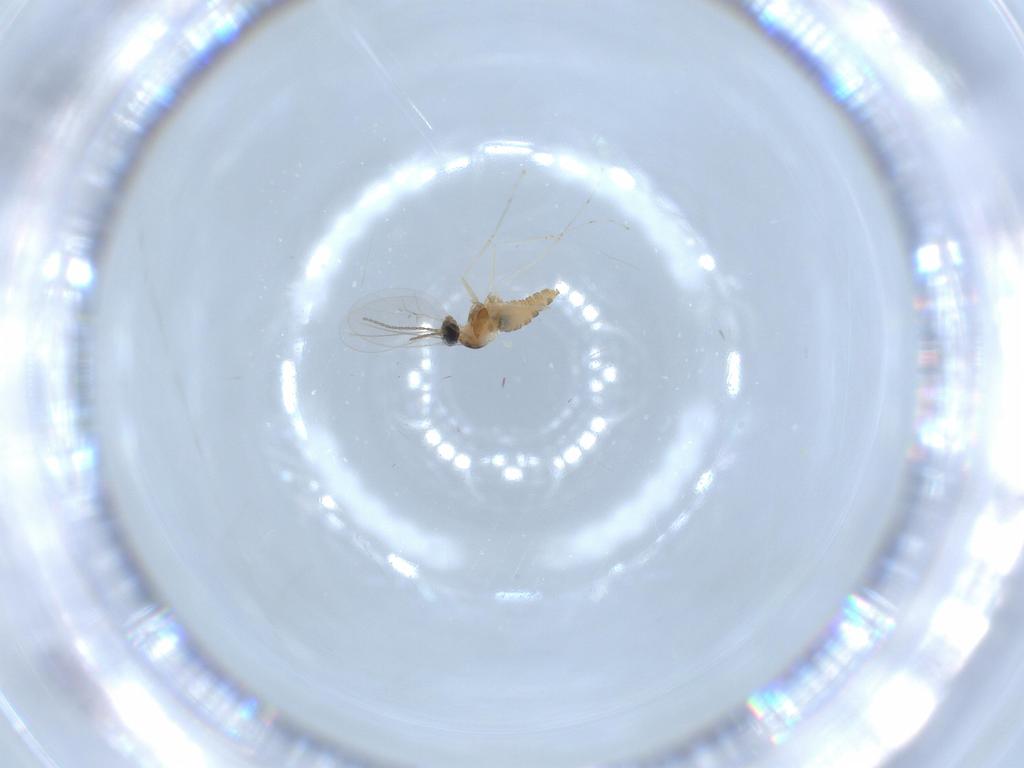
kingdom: Animalia
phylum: Arthropoda
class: Insecta
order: Diptera
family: Cecidomyiidae
